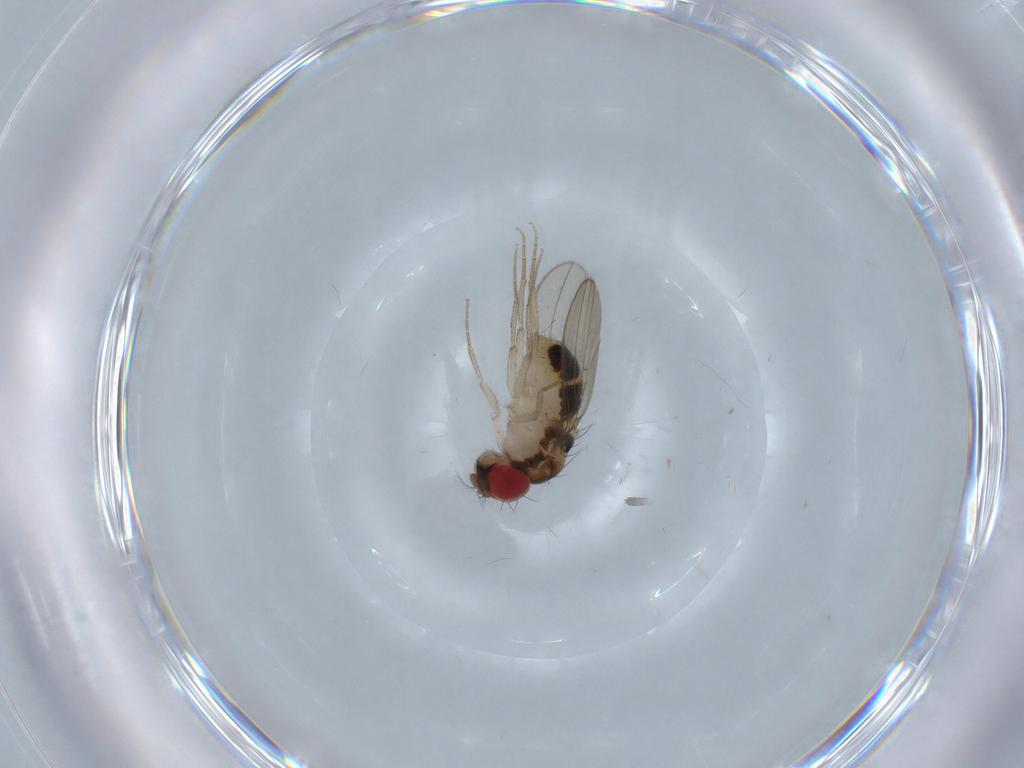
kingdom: Animalia
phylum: Arthropoda
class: Insecta
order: Diptera
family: Drosophilidae
